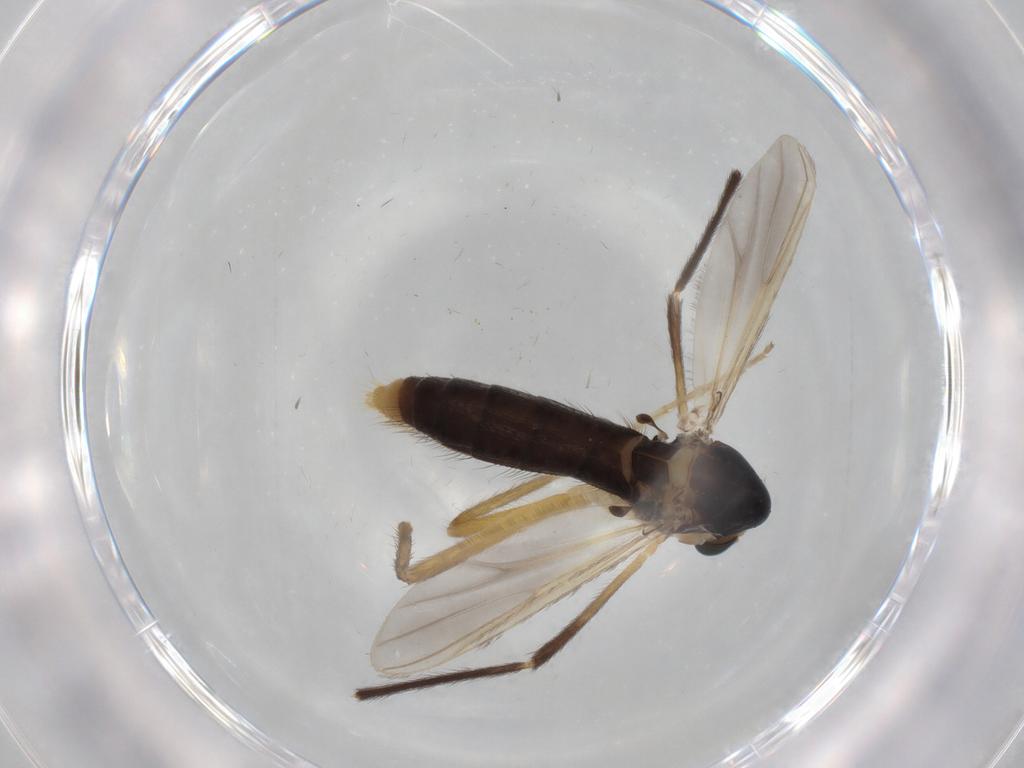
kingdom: Animalia
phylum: Arthropoda
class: Insecta
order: Diptera
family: Chironomidae
